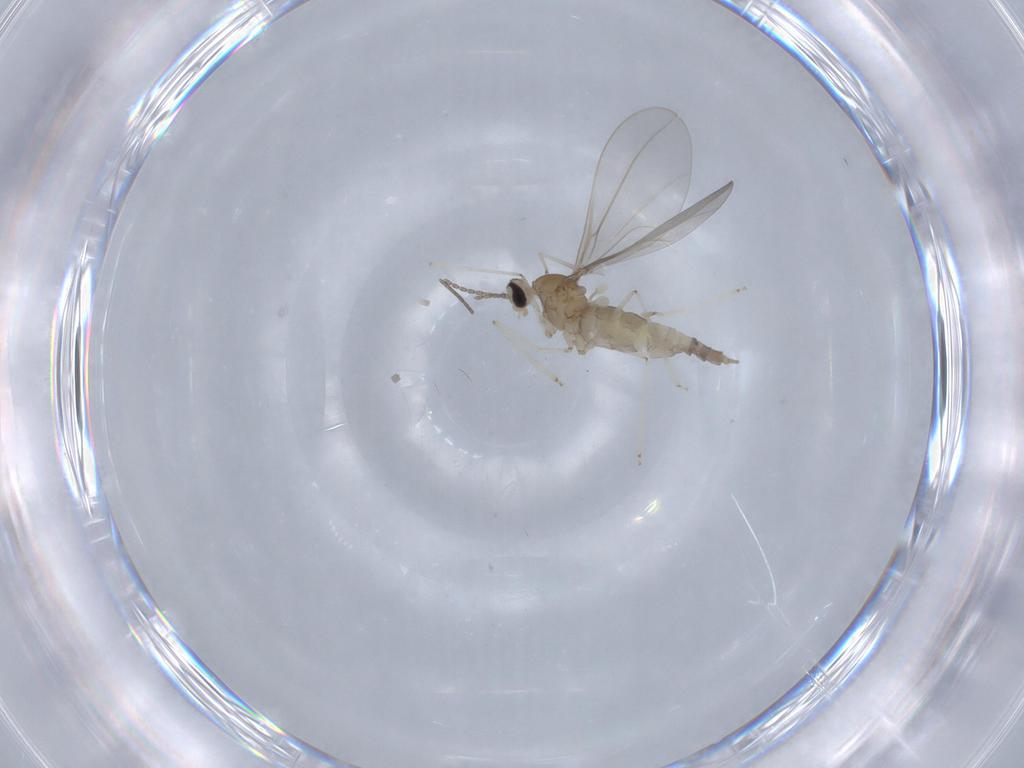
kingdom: Animalia
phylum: Arthropoda
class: Insecta
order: Diptera
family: Cecidomyiidae
